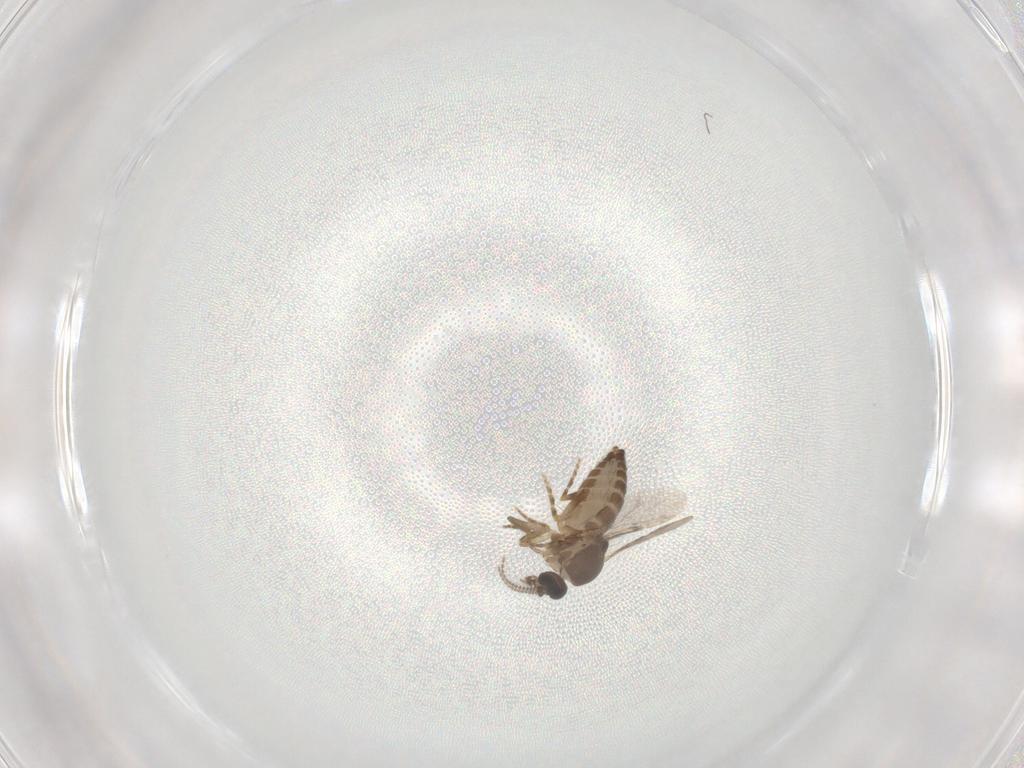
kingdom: Animalia
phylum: Arthropoda
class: Insecta
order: Diptera
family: Ceratopogonidae
